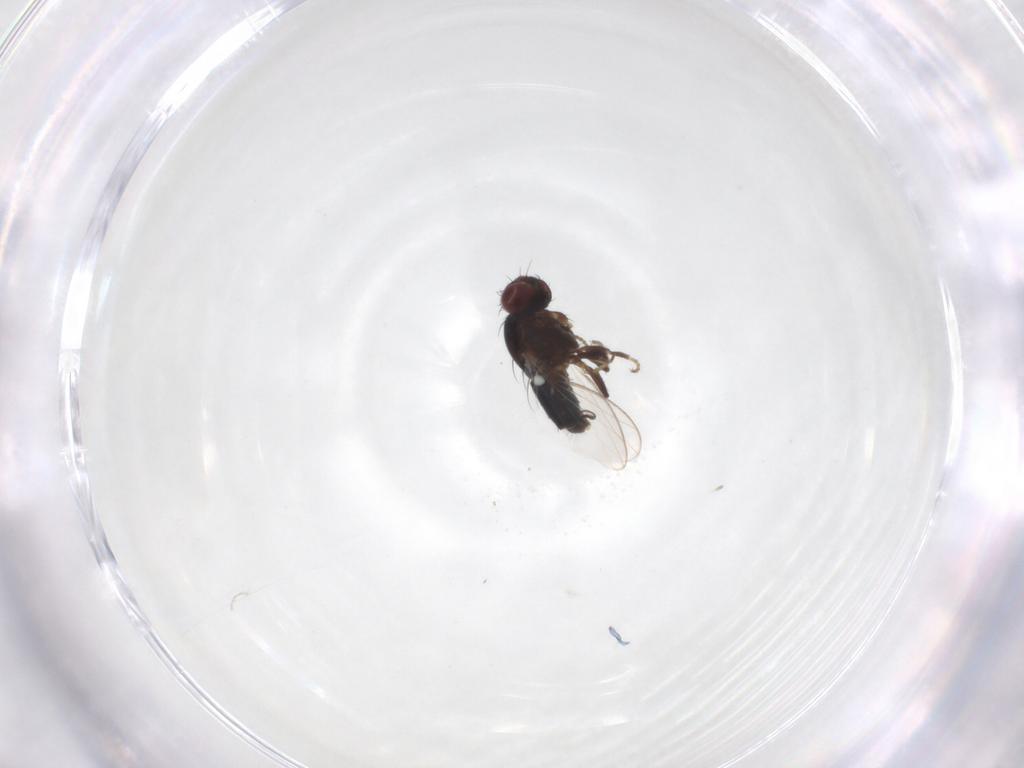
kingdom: Animalia
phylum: Arthropoda
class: Insecta
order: Diptera
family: Carnidae
